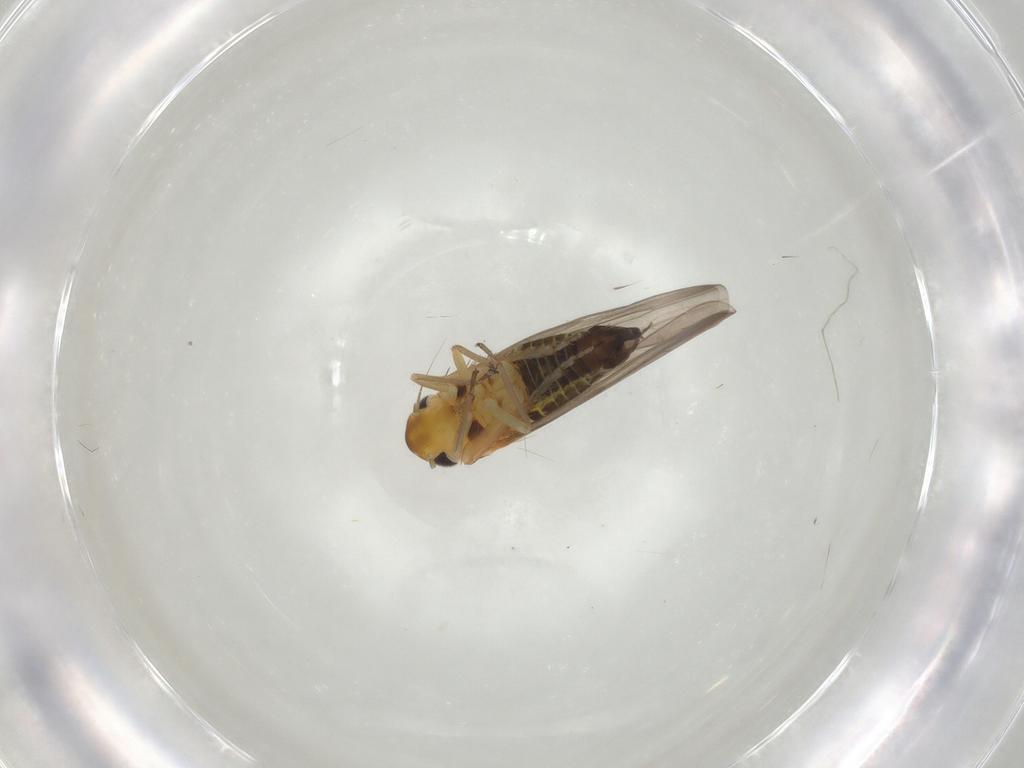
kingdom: Animalia
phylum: Arthropoda
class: Insecta
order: Hemiptera
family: Cicadellidae
